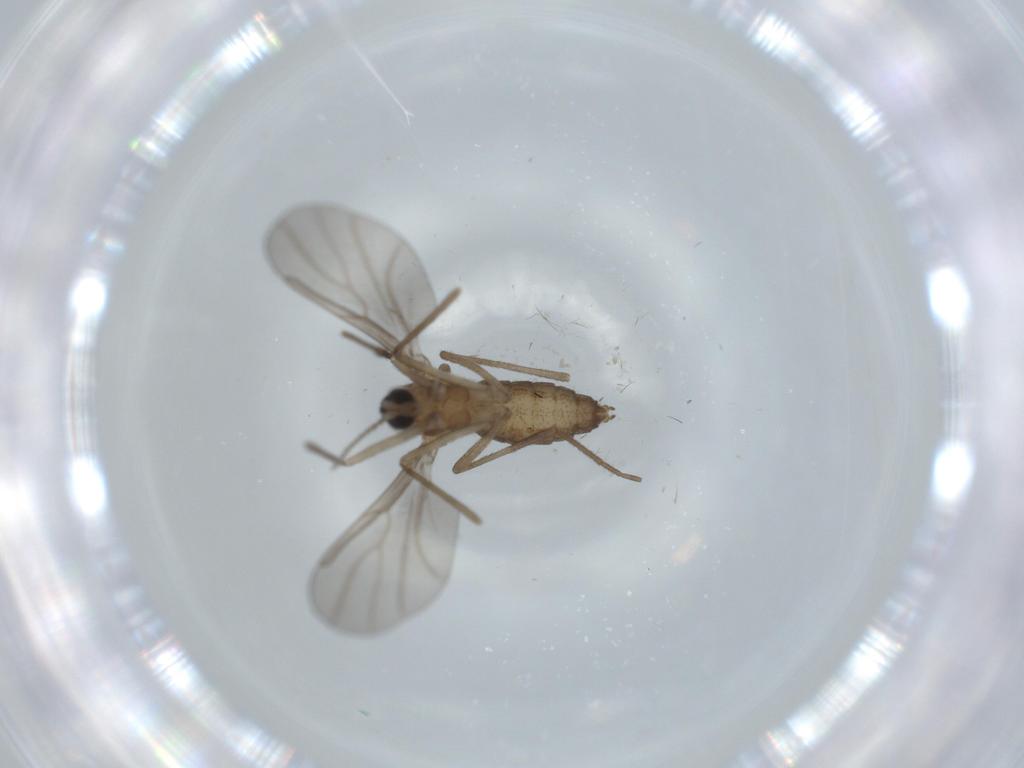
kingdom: Animalia
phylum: Arthropoda
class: Insecta
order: Diptera
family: Cecidomyiidae
